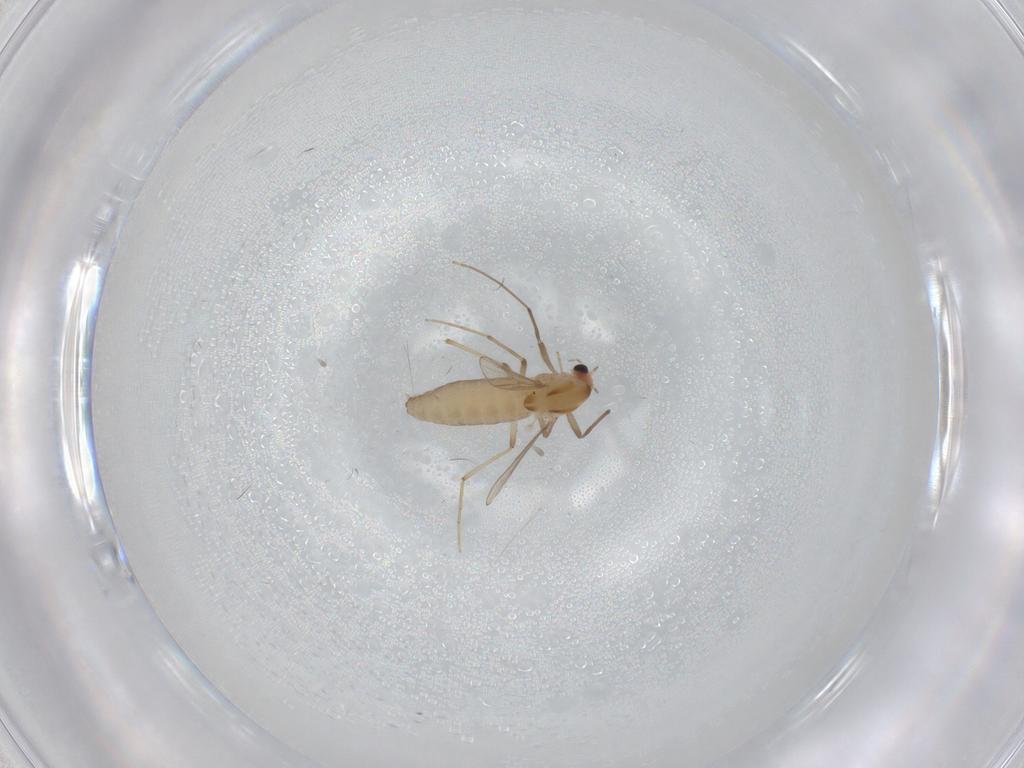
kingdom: Animalia
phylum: Arthropoda
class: Insecta
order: Diptera
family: Chironomidae
